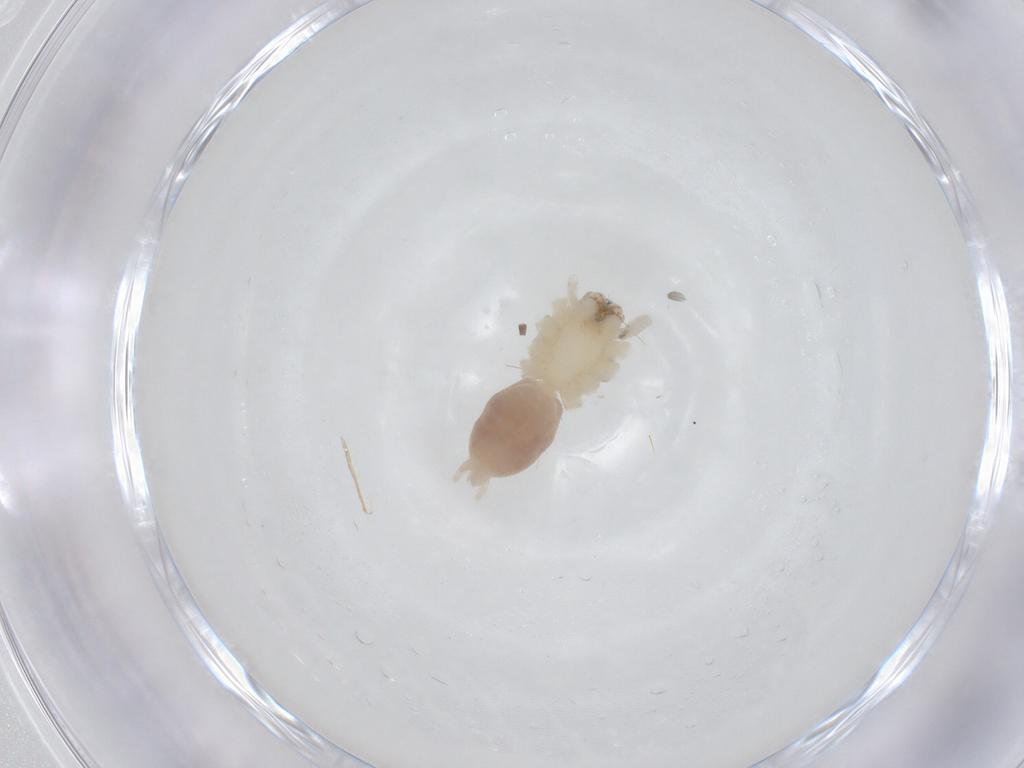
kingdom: Animalia
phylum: Arthropoda
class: Arachnida
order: Araneae
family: Anyphaenidae
